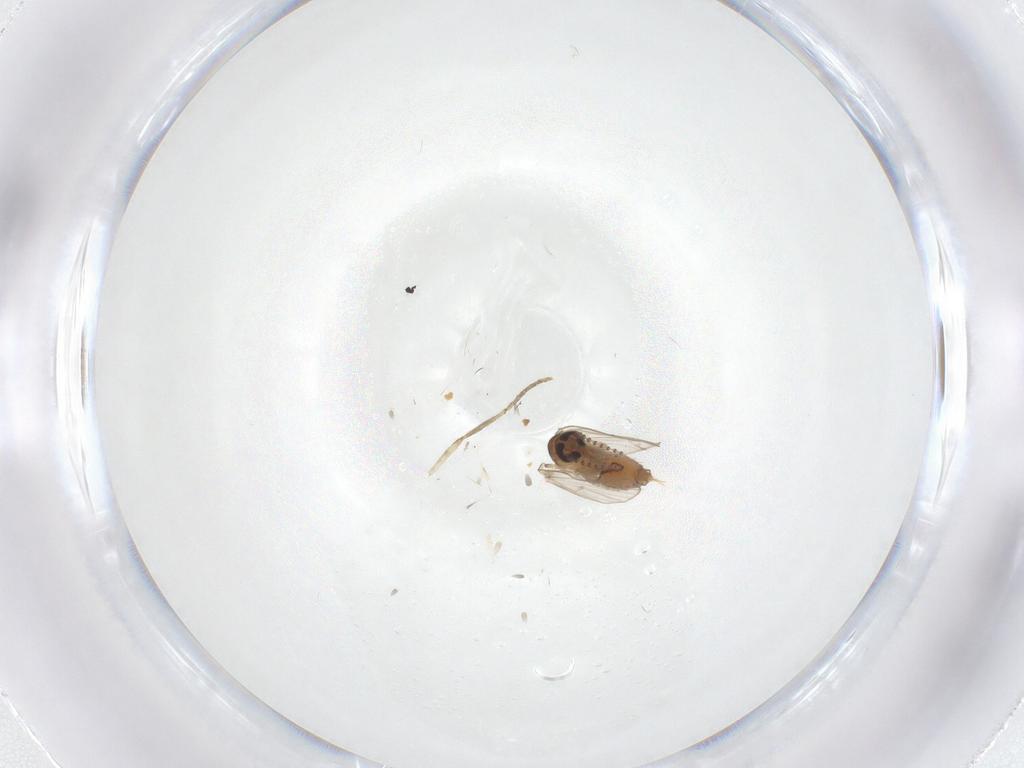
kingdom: Animalia
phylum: Arthropoda
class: Insecta
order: Diptera
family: Psychodidae
